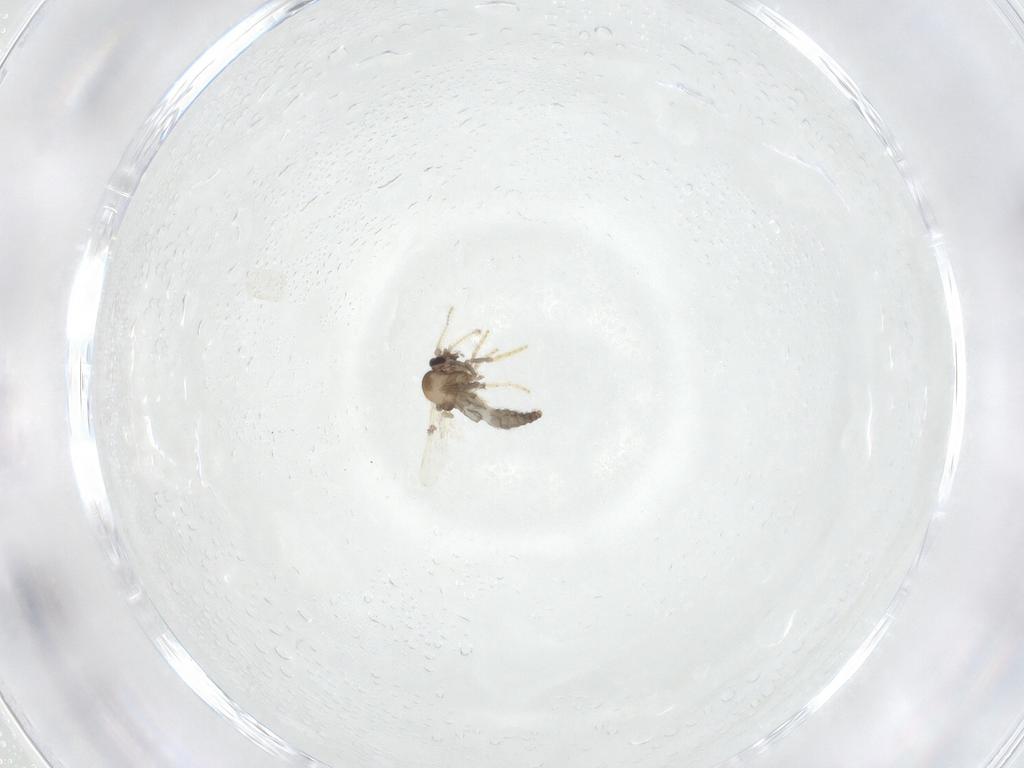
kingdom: Animalia
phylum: Arthropoda
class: Insecta
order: Diptera
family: Ceratopogonidae
